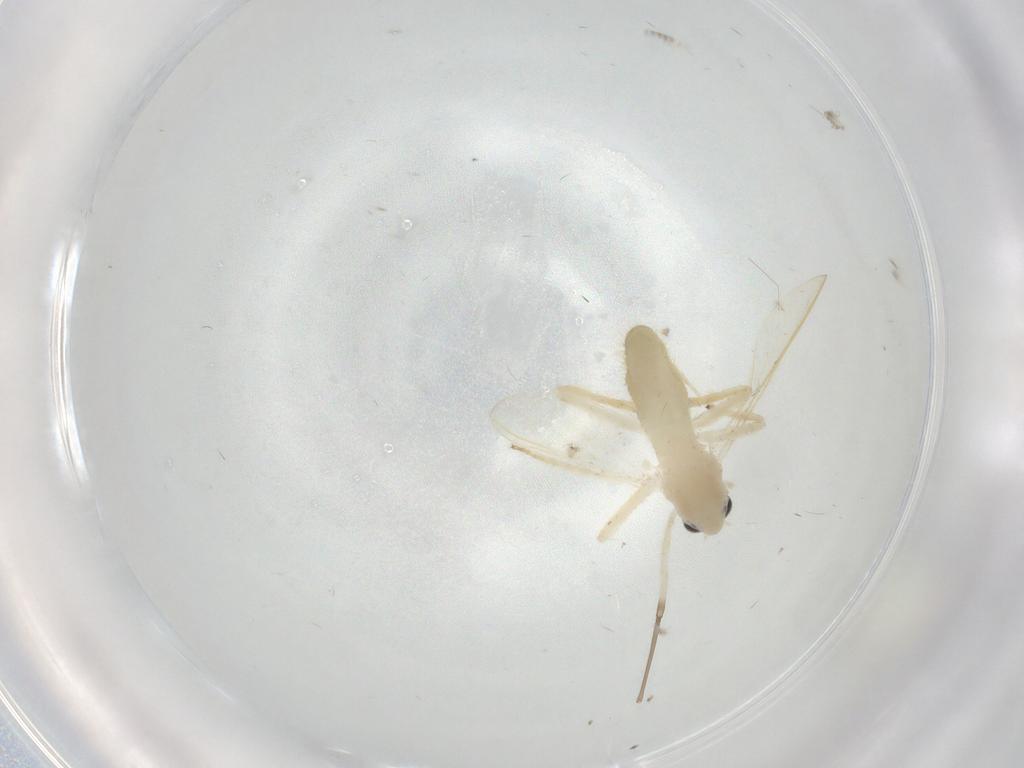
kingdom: Animalia
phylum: Arthropoda
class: Insecta
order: Diptera
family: Chironomidae
